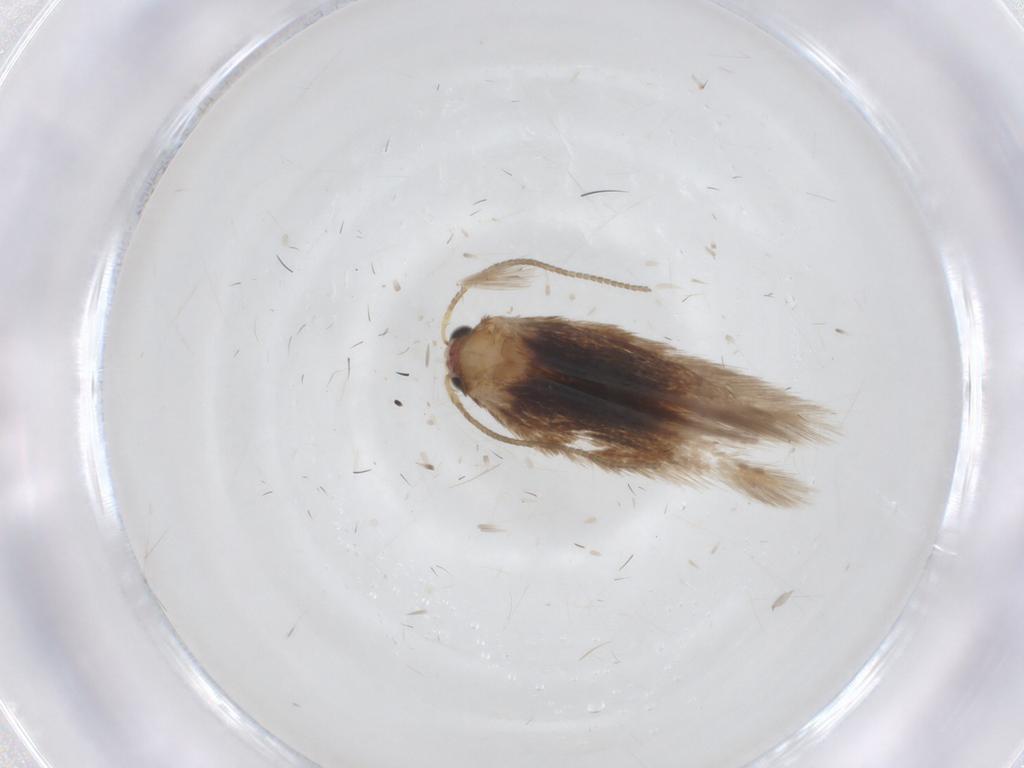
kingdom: Animalia
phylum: Arthropoda
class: Insecta
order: Lepidoptera
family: Nepticulidae
